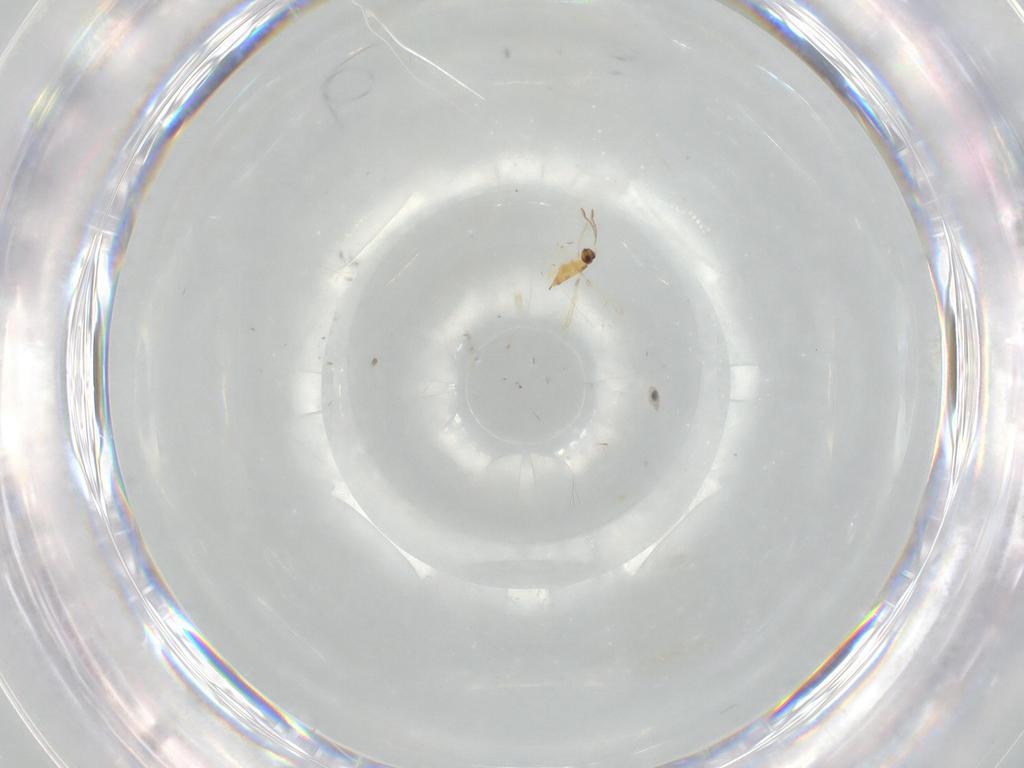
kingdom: Animalia
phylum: Arthropoda
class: Insecta
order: Hymenoptera
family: Mymaridae
